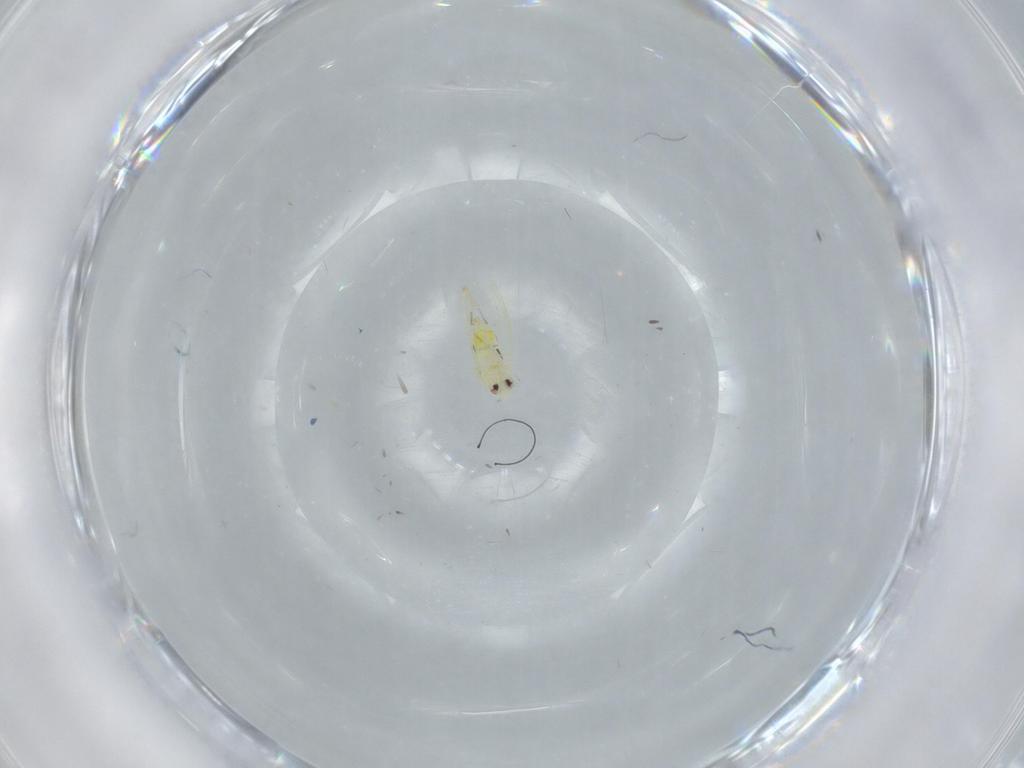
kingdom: Animalia
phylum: Arthropoda
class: Insecta
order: Hemiptera
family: Aleyrodidae
